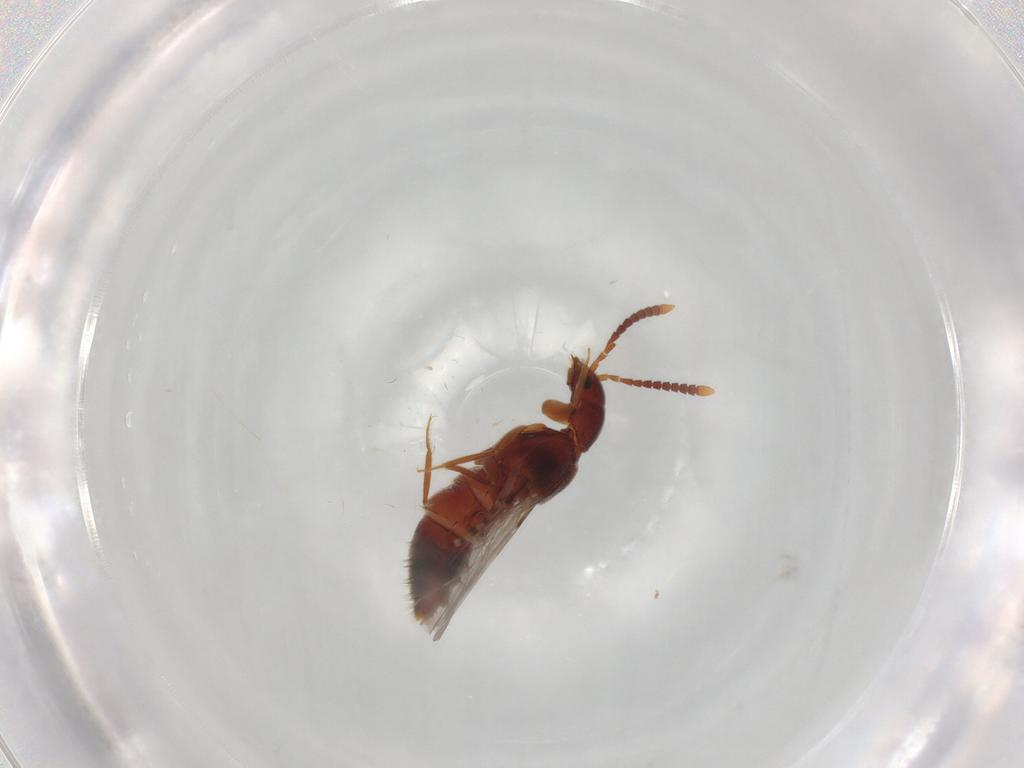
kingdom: Animalia
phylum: Arthropoda
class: Insecta
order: Coleoptera
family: Staphylinidae
